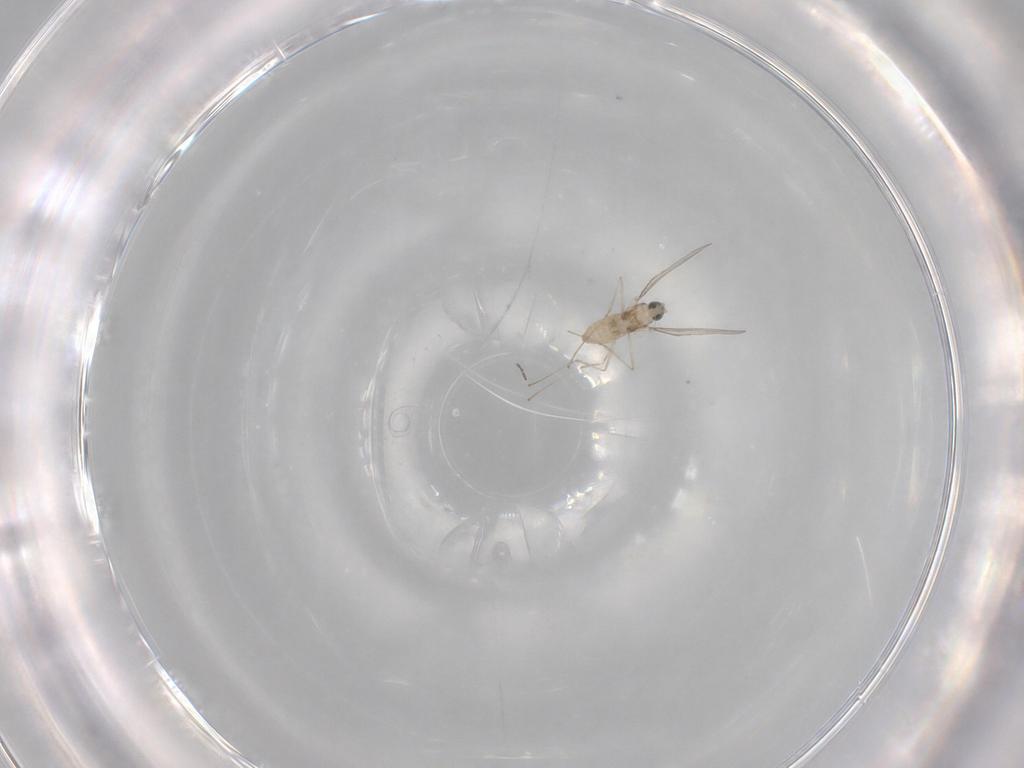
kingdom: Animalia
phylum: Arthropoda
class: Insecta
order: Diptera
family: Cecidomyiidae
